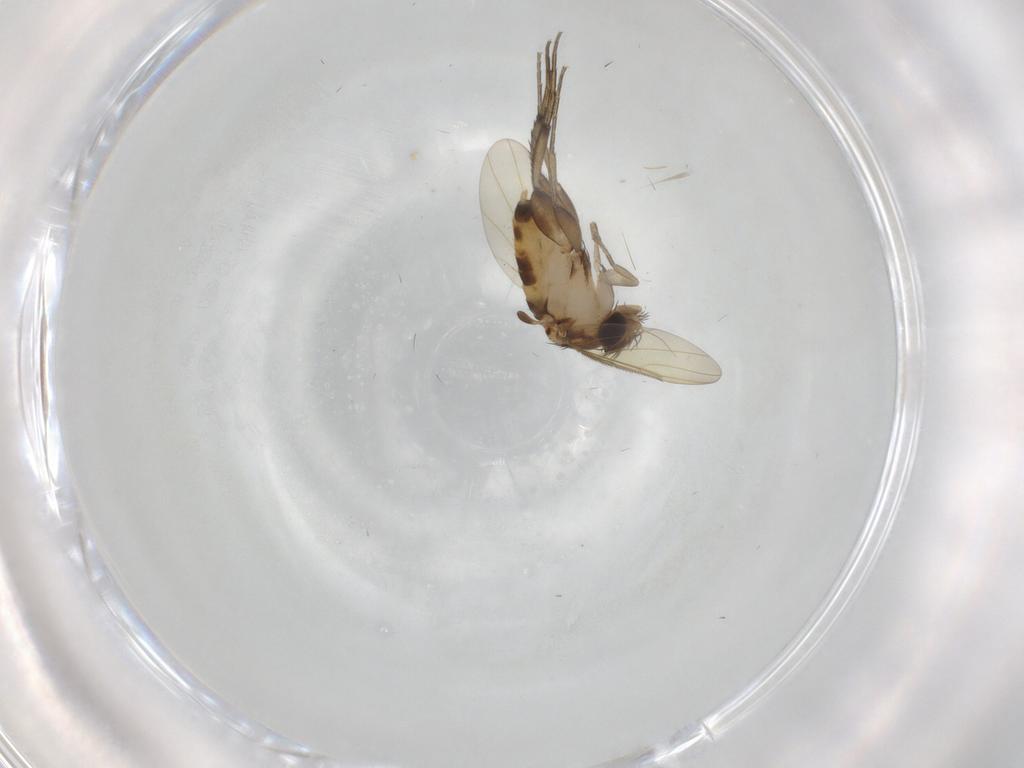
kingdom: Animalia
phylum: Arthropoda
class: Insecta
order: Diptera
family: Phoridae
